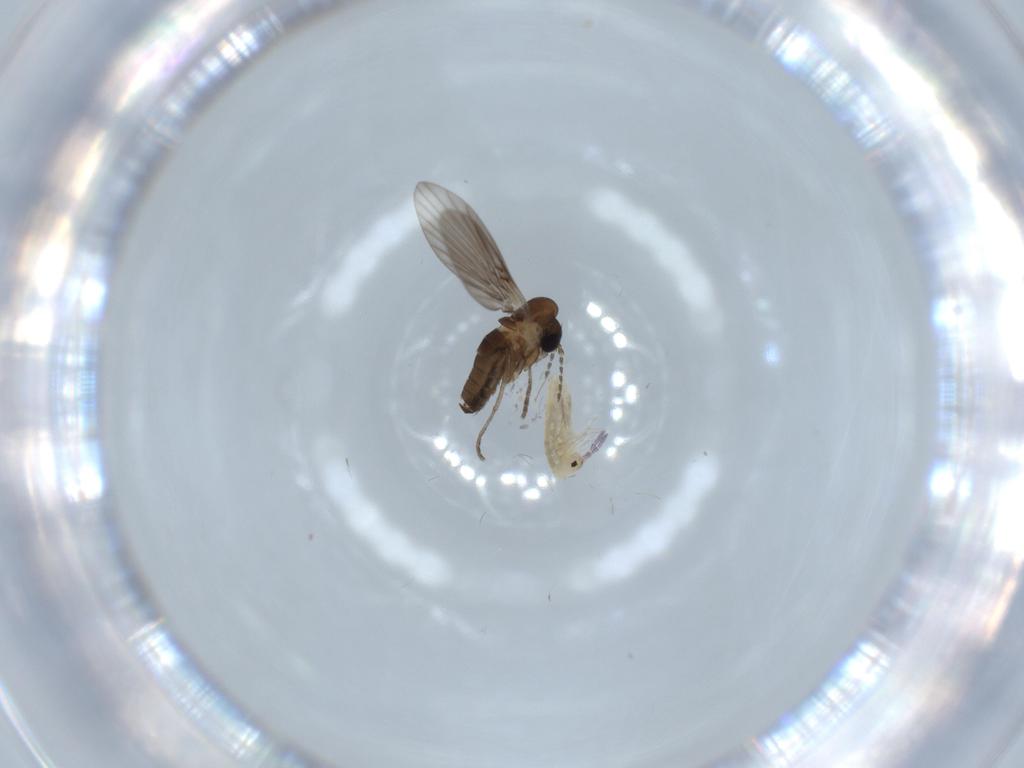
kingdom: Animalia
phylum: Arthropoda
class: Collembola
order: Entomobryomorpha
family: Entomobryidae
